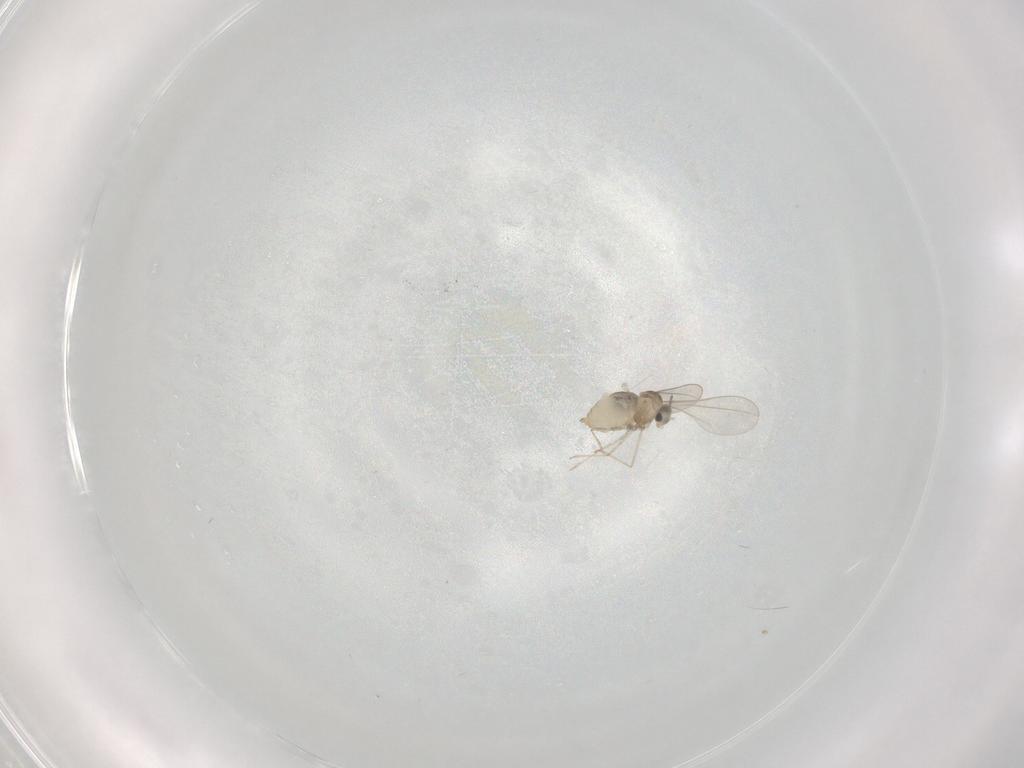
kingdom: Animalia
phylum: Arthropoda
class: Insecta
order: Diptera
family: Cecidomyiidae
